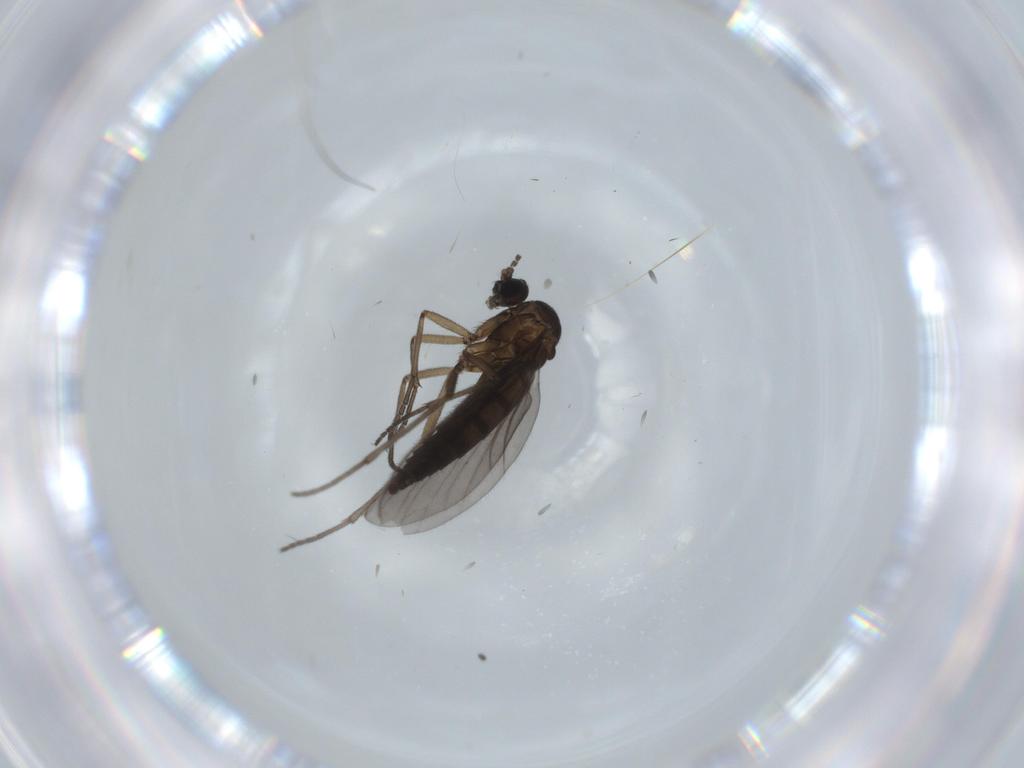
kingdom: Animalia
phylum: Arthropoda
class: Insecta
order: Diptera
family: Sciaridae
